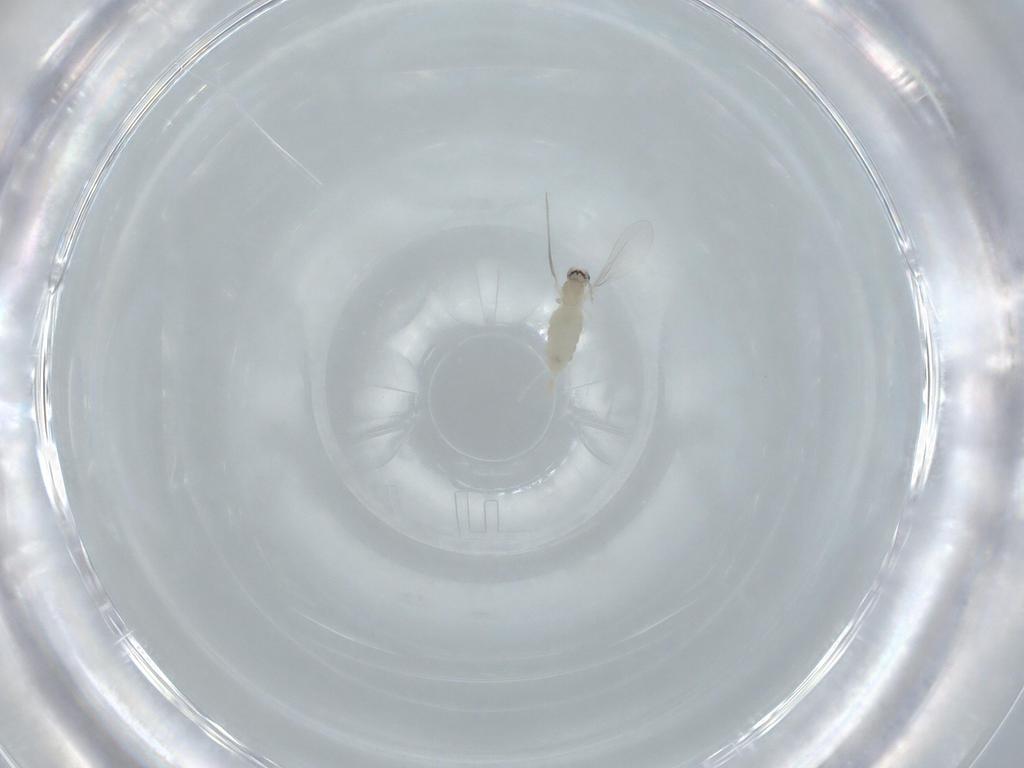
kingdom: Animalia
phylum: Arthropoda
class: Insecta
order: Diptera
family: Cecidomyiidae
